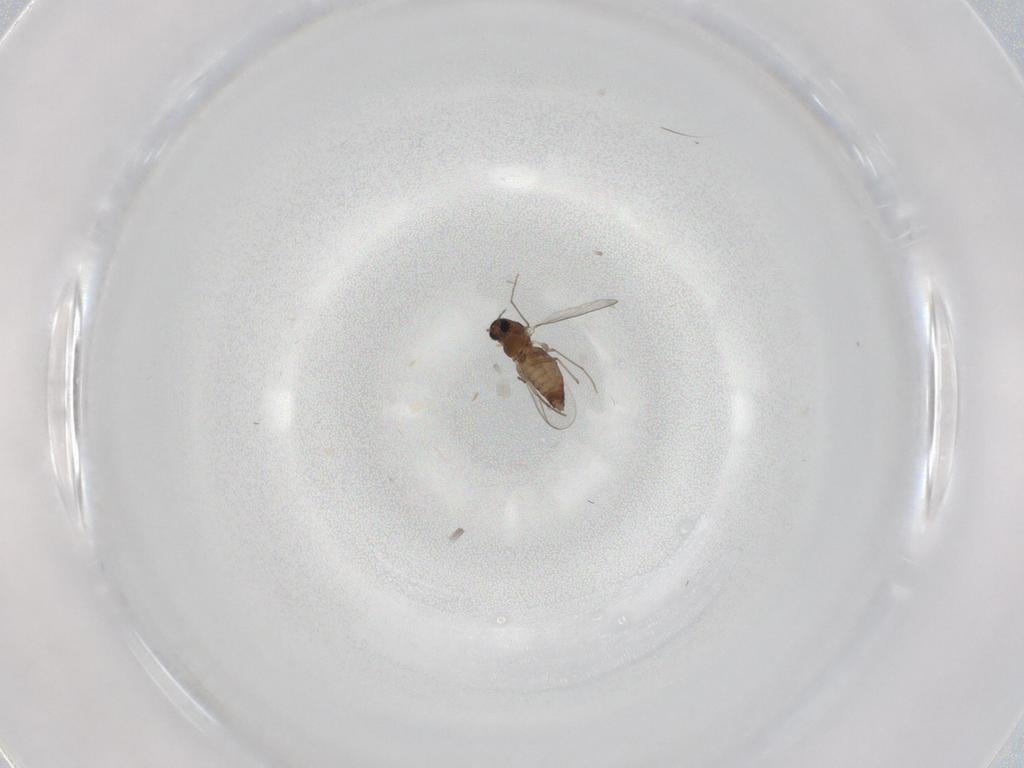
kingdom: Animalia
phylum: Arthropoda
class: Insecta
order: Diptera
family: Chironomidae
